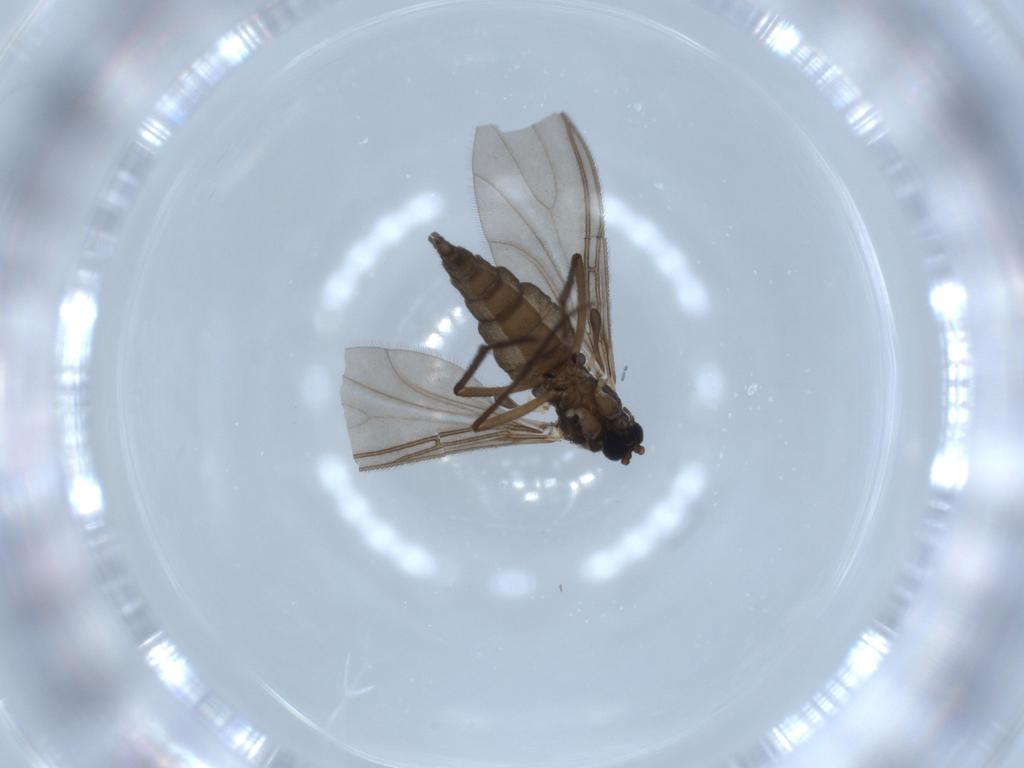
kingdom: Animalia
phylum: Arthropoda
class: Insecta
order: Diptera
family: Sciaridae
